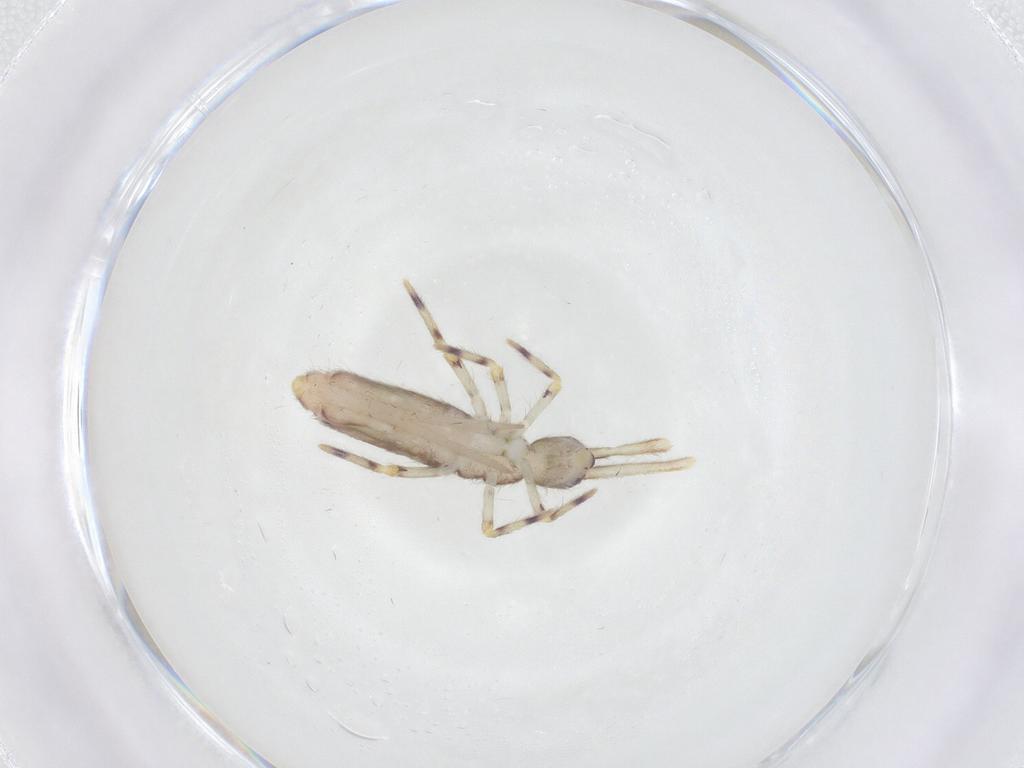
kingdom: Animalia
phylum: Arthropoda
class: Collembola
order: Entomobryomorpha
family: Entomobryidae
